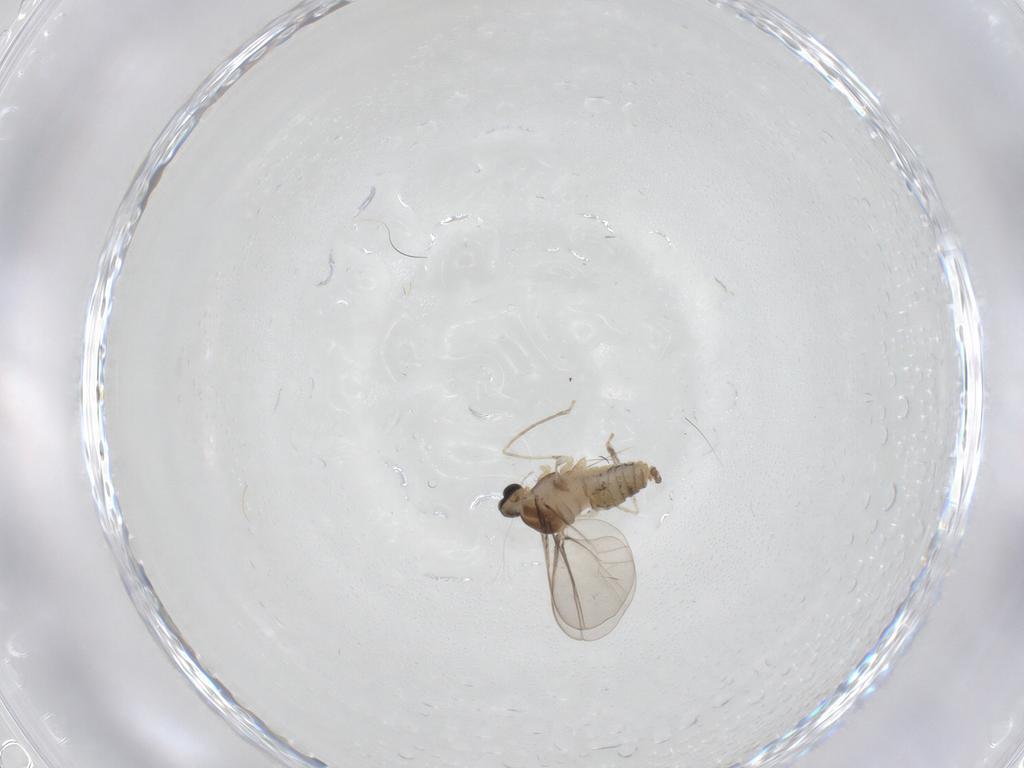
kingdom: Animalia
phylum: Arthropoda
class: Insecta
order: Diptera
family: Cecidomyiidae
